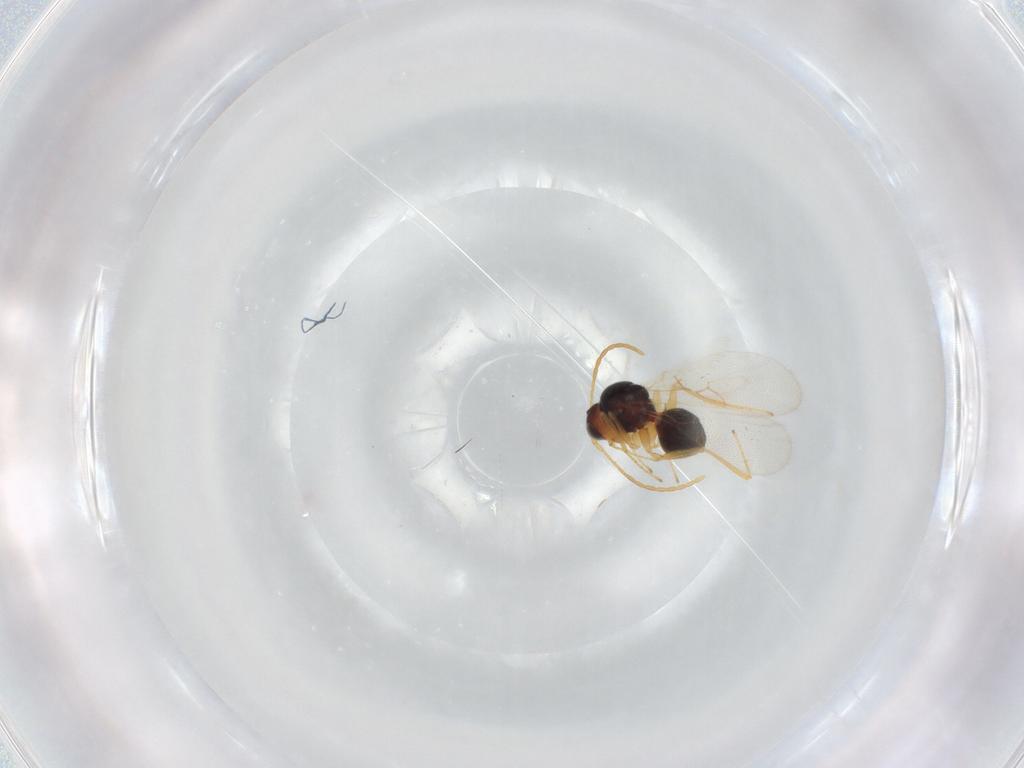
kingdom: Animalia
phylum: Arthropoda
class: Insecta
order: Hymenoptera
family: Figitidae
